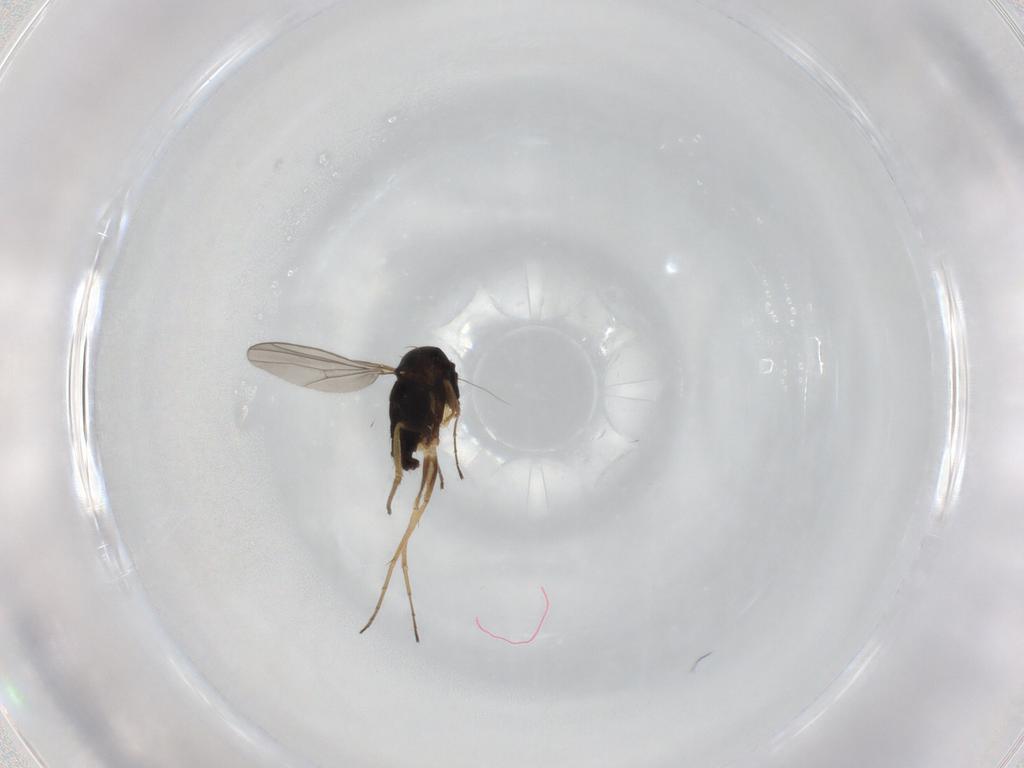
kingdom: Animalia
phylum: Arthropoda
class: Insecta
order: Diptera
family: Dolichopodidae
